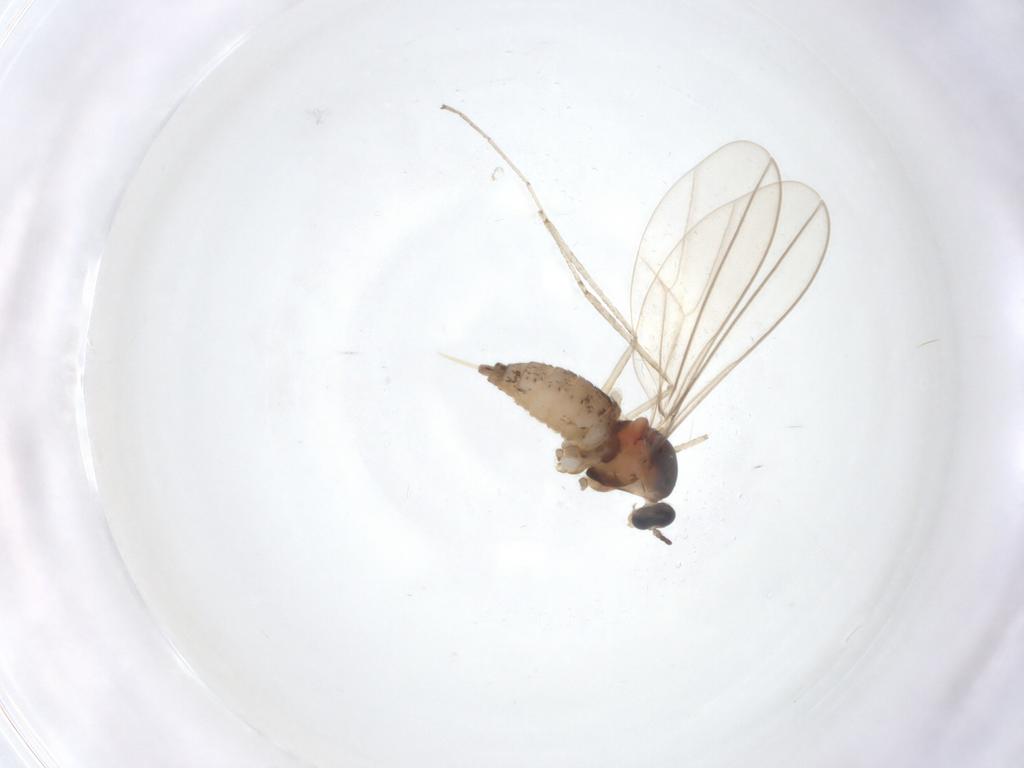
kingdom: Animalia
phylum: Arthropoda
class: Insecta
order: Diptera
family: Cecidomyiidae
